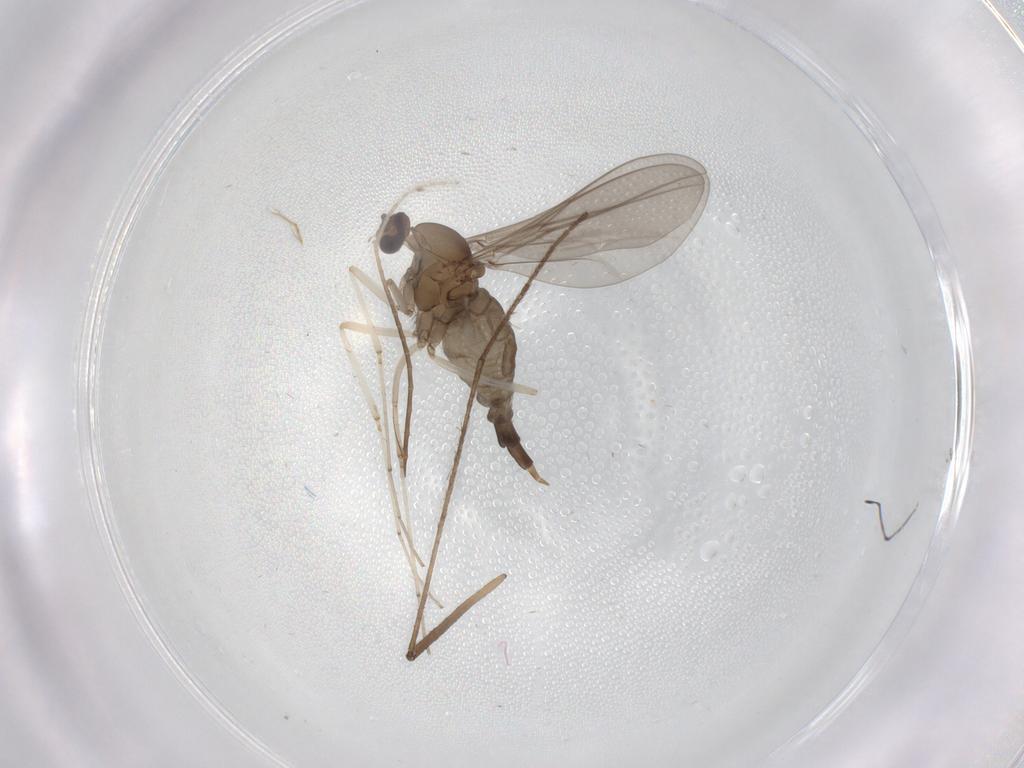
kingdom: Animalia
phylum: Arthropoda
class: Insecta
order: Diptera
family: Cecidomyiidae
